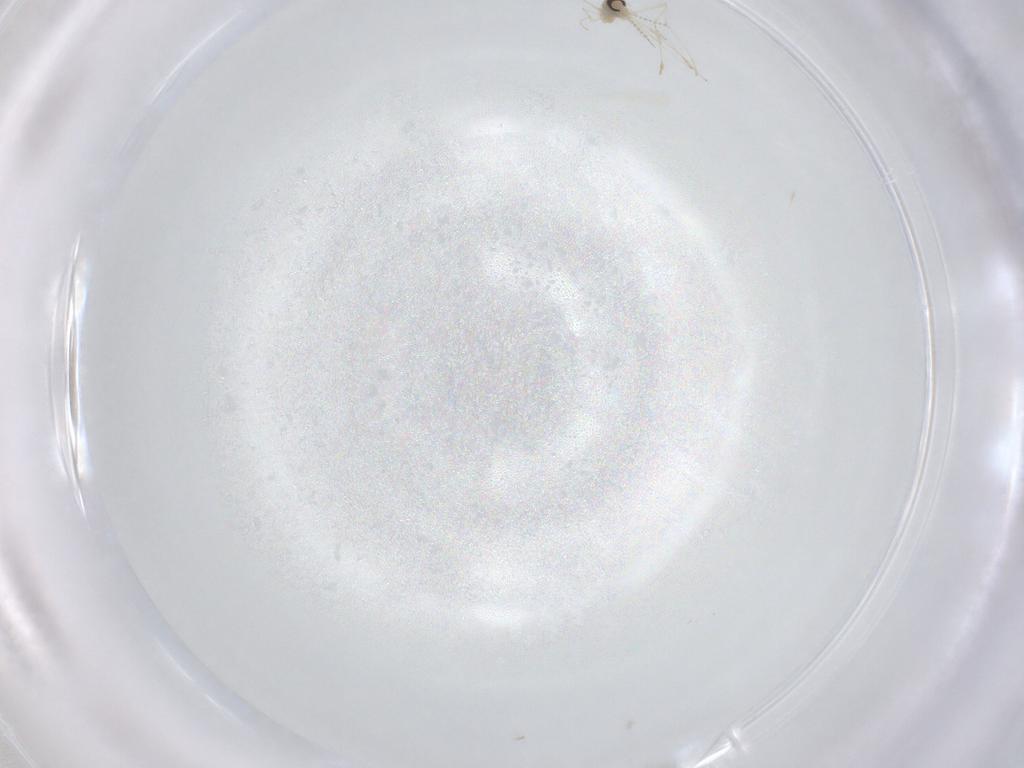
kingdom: Animalia
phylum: Arthropoda
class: Insecta
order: Diptera
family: Cecidomyiidae
